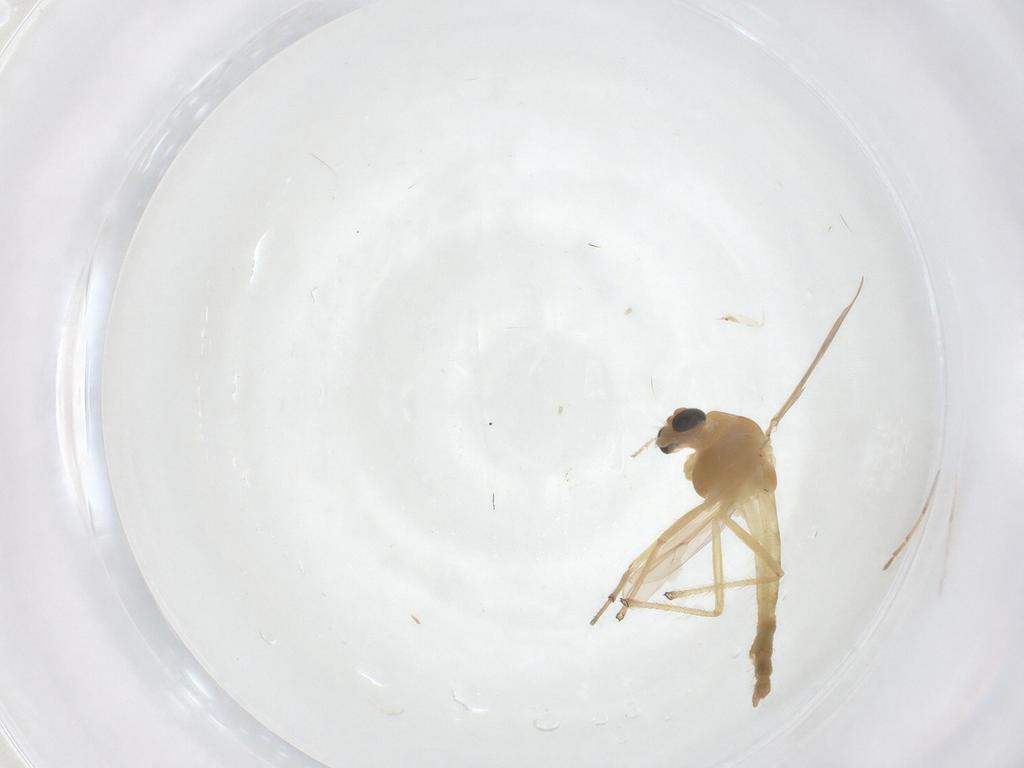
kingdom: Animalia
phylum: Arthropoda
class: Insecta
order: Diptera
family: Chironomidae
